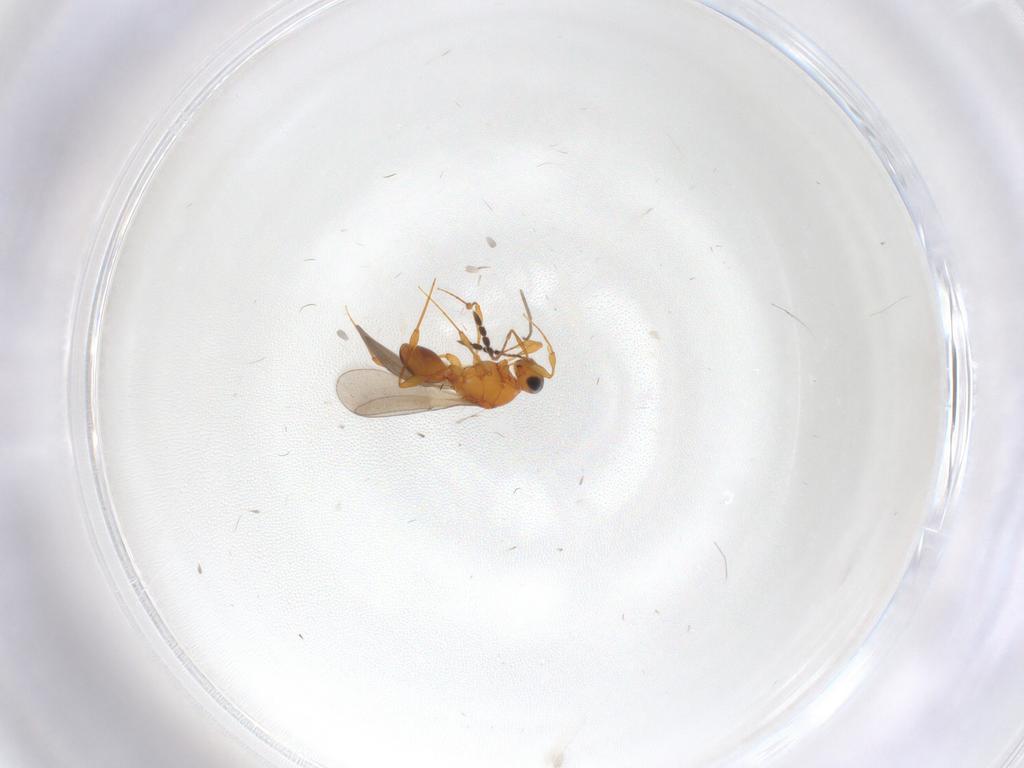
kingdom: Animalia
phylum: Arthropoda
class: Insecta
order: Hymenoptera
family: Platygastridae
